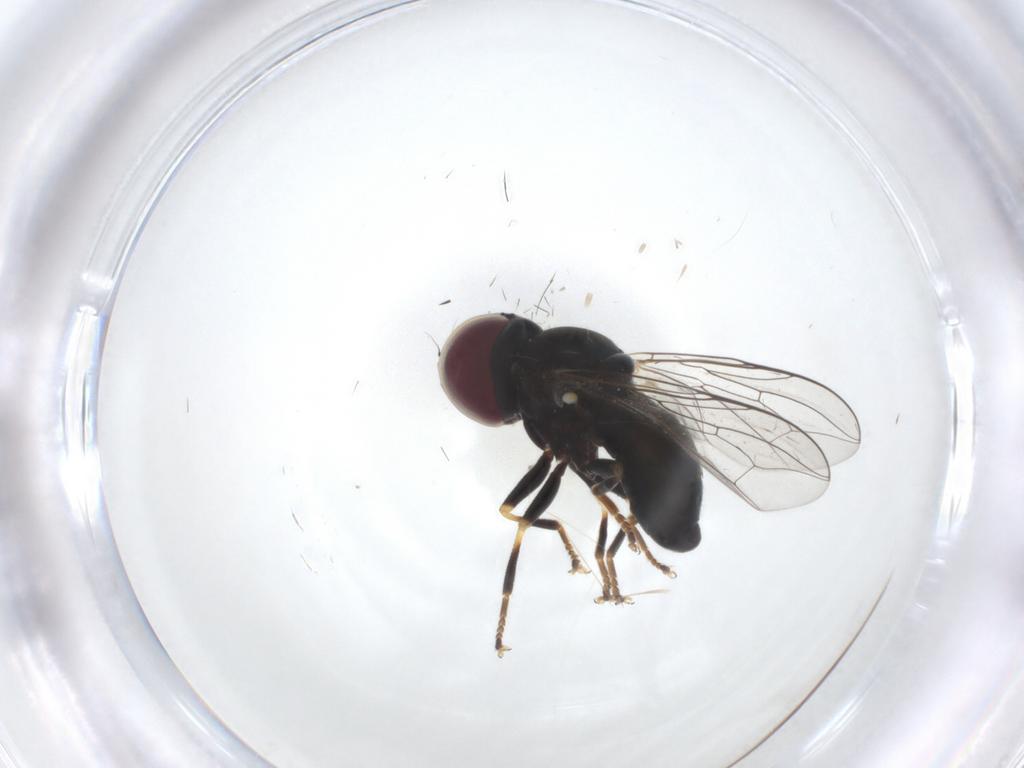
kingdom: Animalia
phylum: Arthropoda
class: Insecta
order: Diptera
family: Pipunculidae
